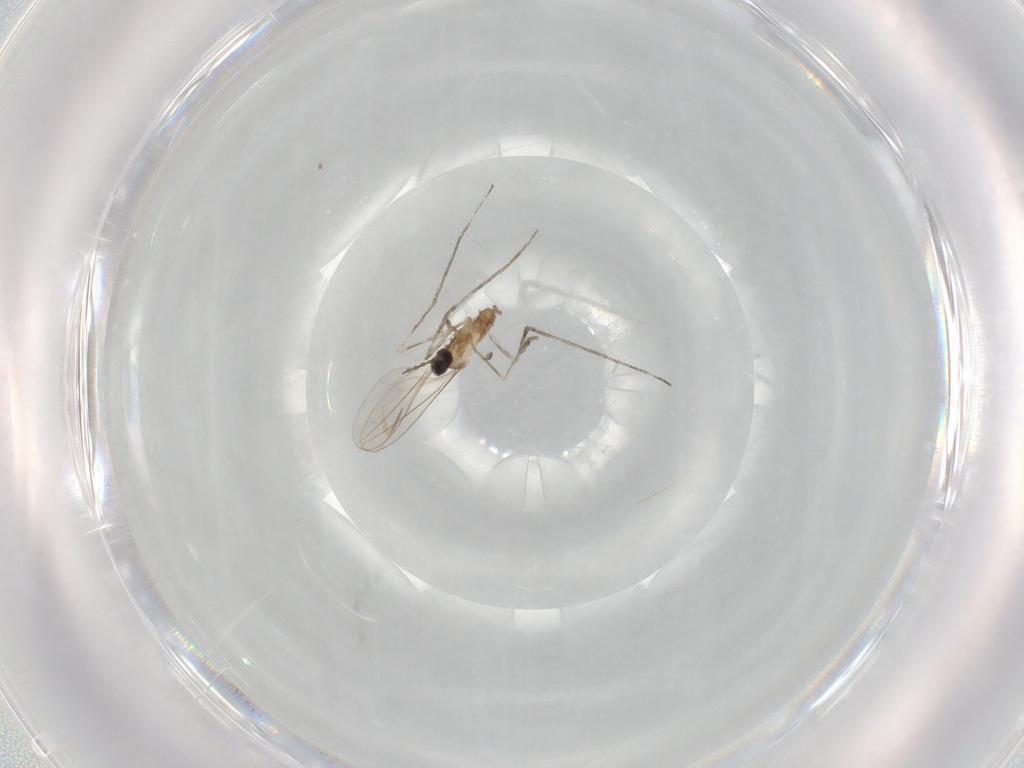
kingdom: Animalia
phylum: Arthropoda
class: Insecta
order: Diptera
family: Cecidomyiidae
